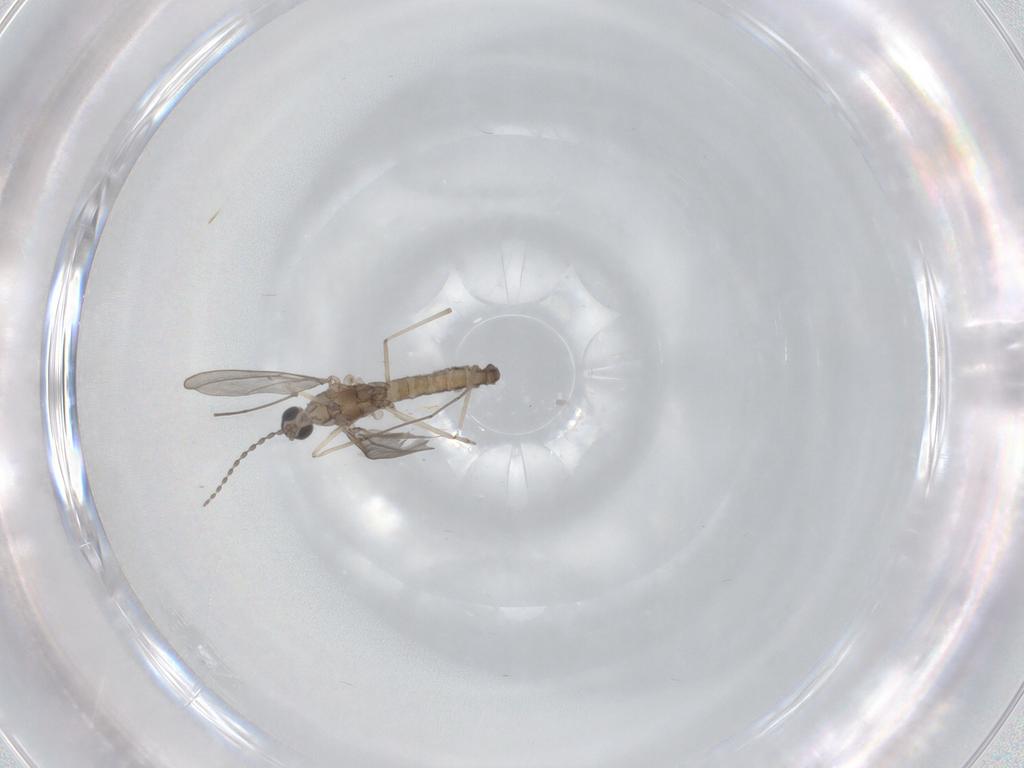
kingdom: Animalia
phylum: Arthropoda
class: Insecta
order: Diptera
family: Cecidomyiidae
